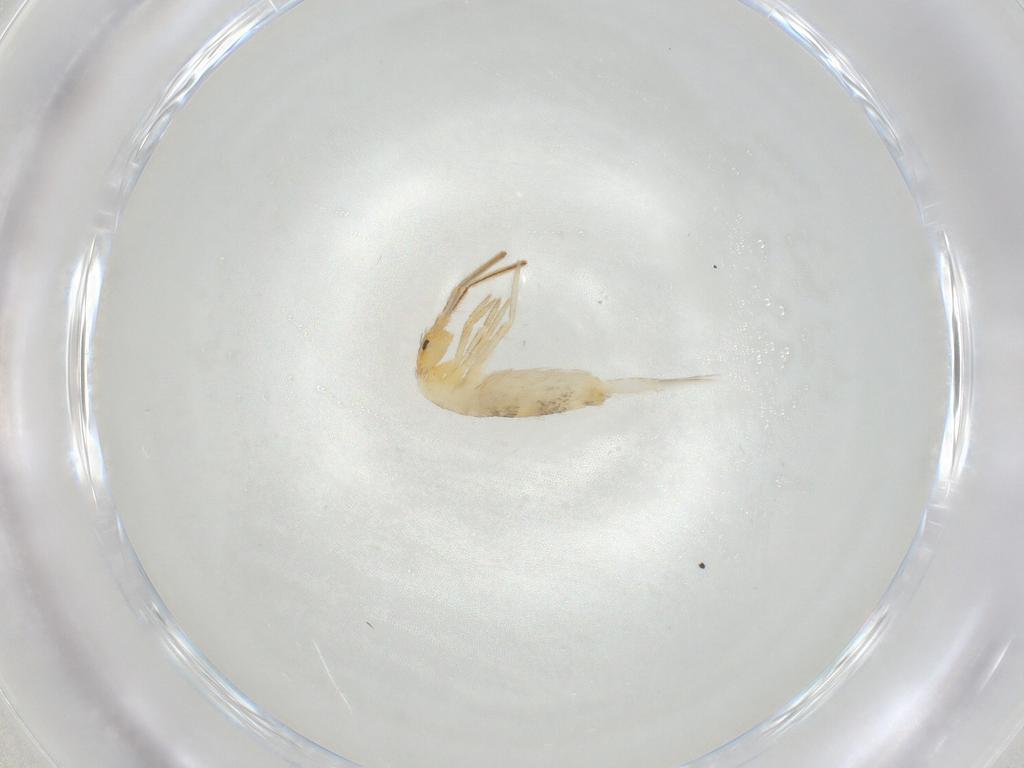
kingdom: Animalia
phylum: Arthropoda
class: Collembola
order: Entomobryomorpha
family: Entomobryidae
